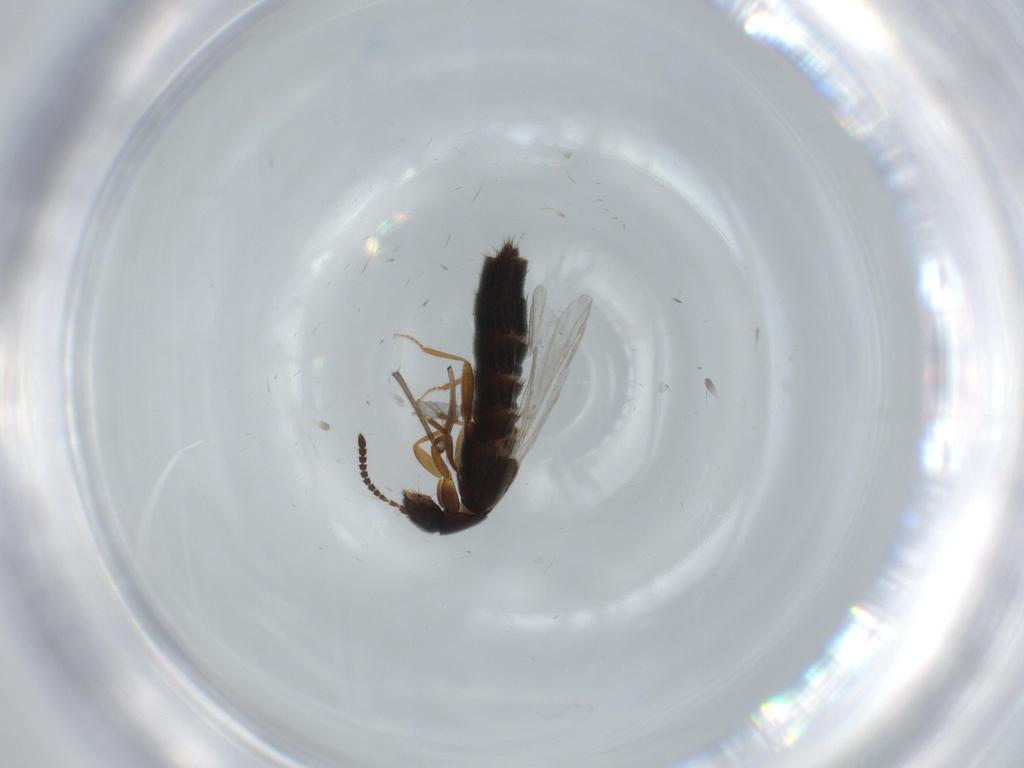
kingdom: Animalia
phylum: Arthropoda
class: Insecta
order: Coleoptera
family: Chrysomelidae
